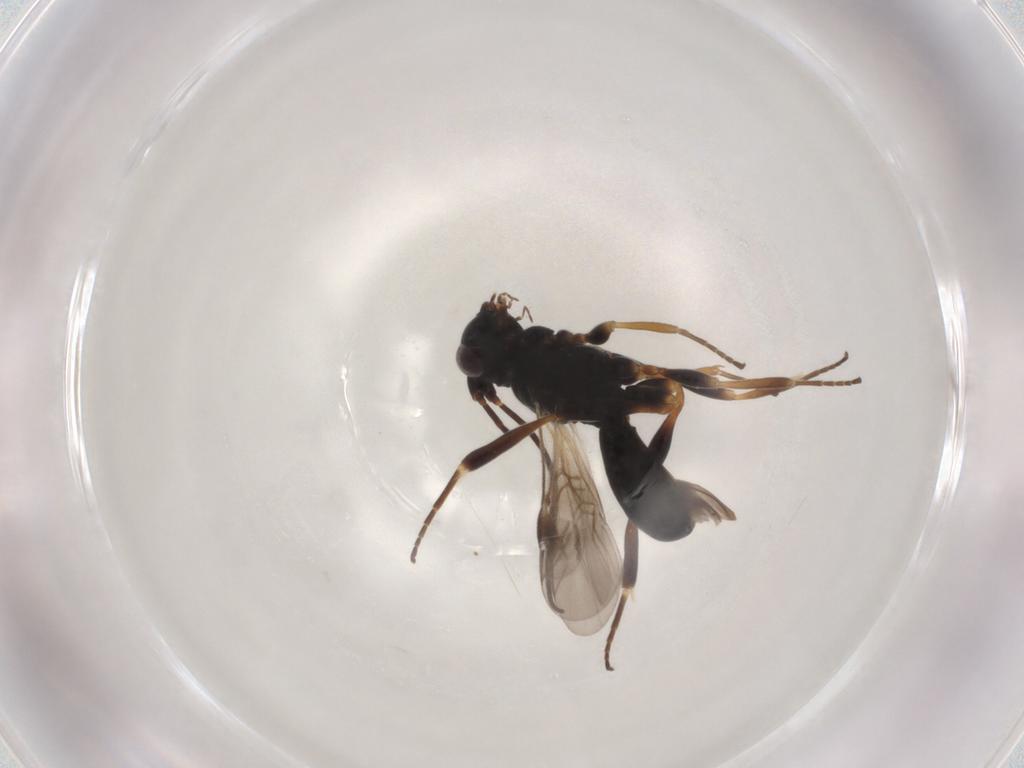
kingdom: Animalia
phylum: Arthropoda
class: Insecta
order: Hymenoptera
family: Braconidae
